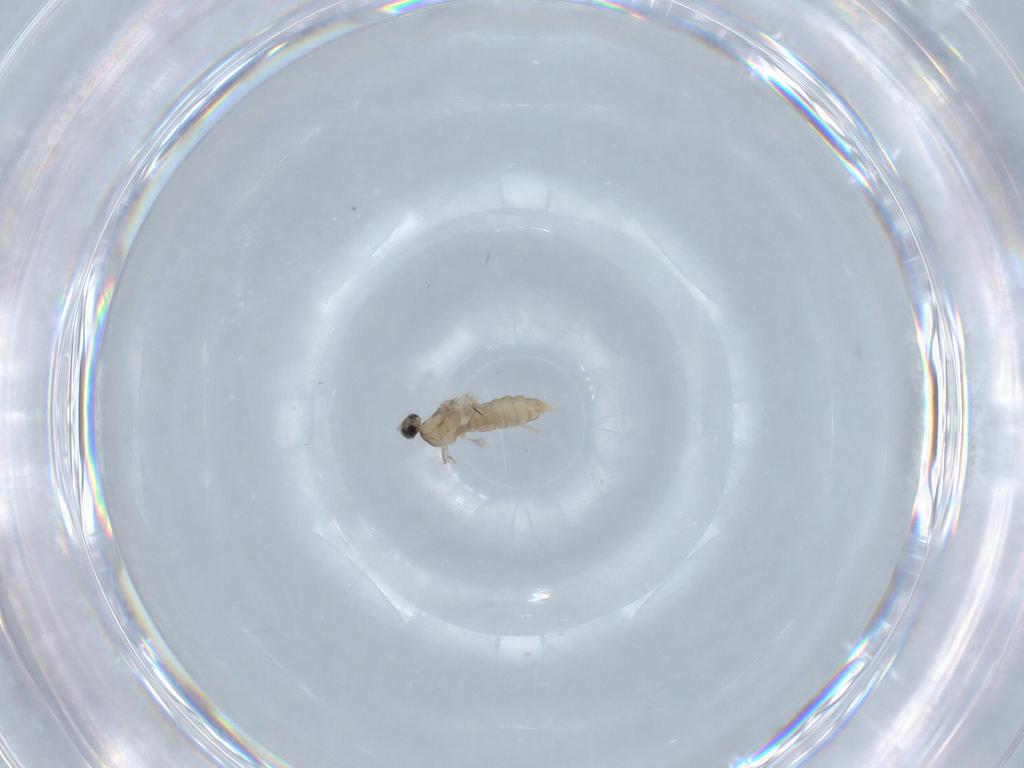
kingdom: Animalia
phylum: Arthropoda
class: Insecta
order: Diptera
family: Cecidomyiidae
